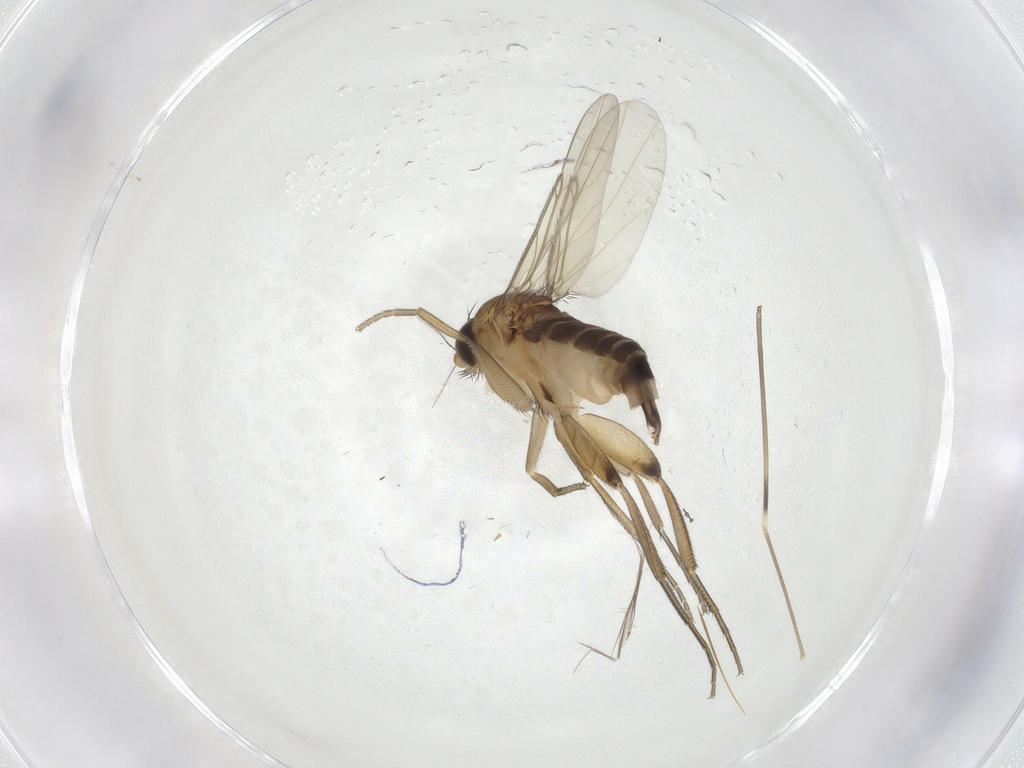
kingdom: Animalia
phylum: Arthropoda
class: Insecta
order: Diptera
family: Phoridae
